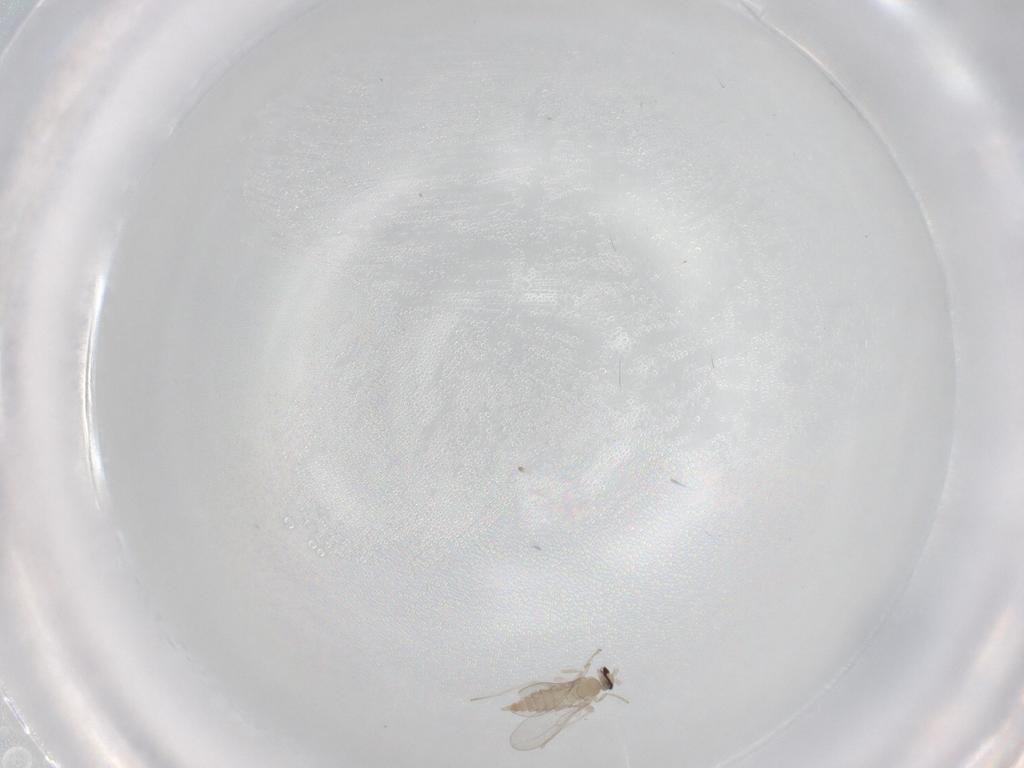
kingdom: Animalia
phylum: Arthropoda
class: Insecta
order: Diptera
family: Cecidomyiidae
